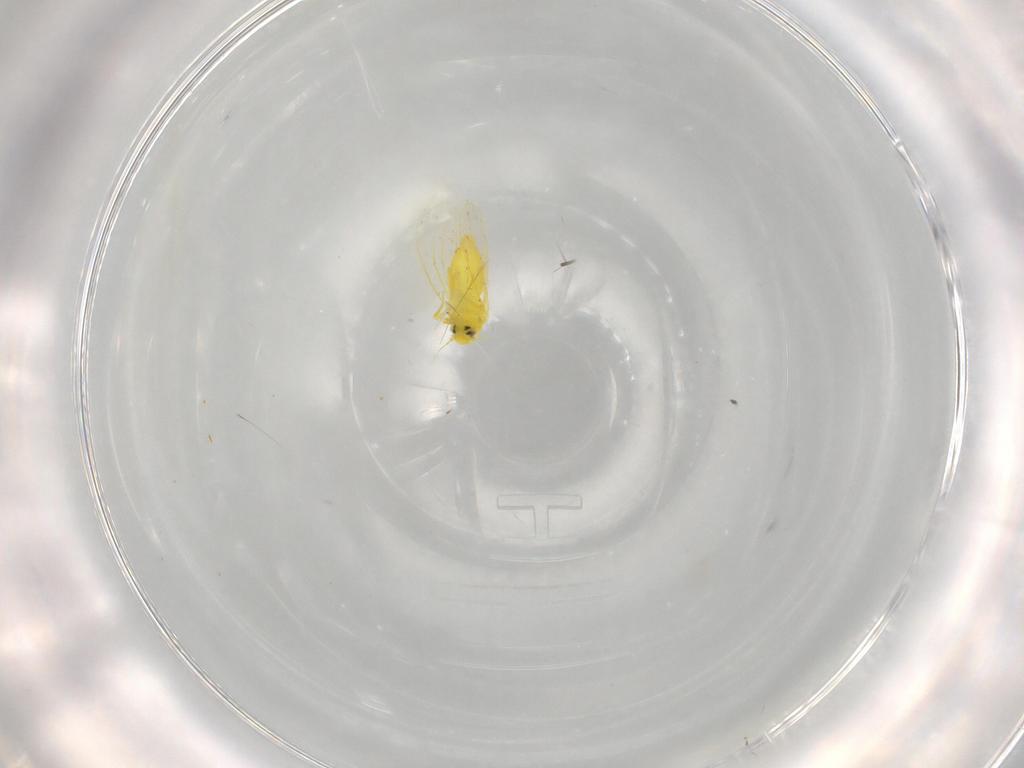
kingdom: Animalia
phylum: Arthropoda
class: Insecta
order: Hemiptera
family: Aleyrodidae
